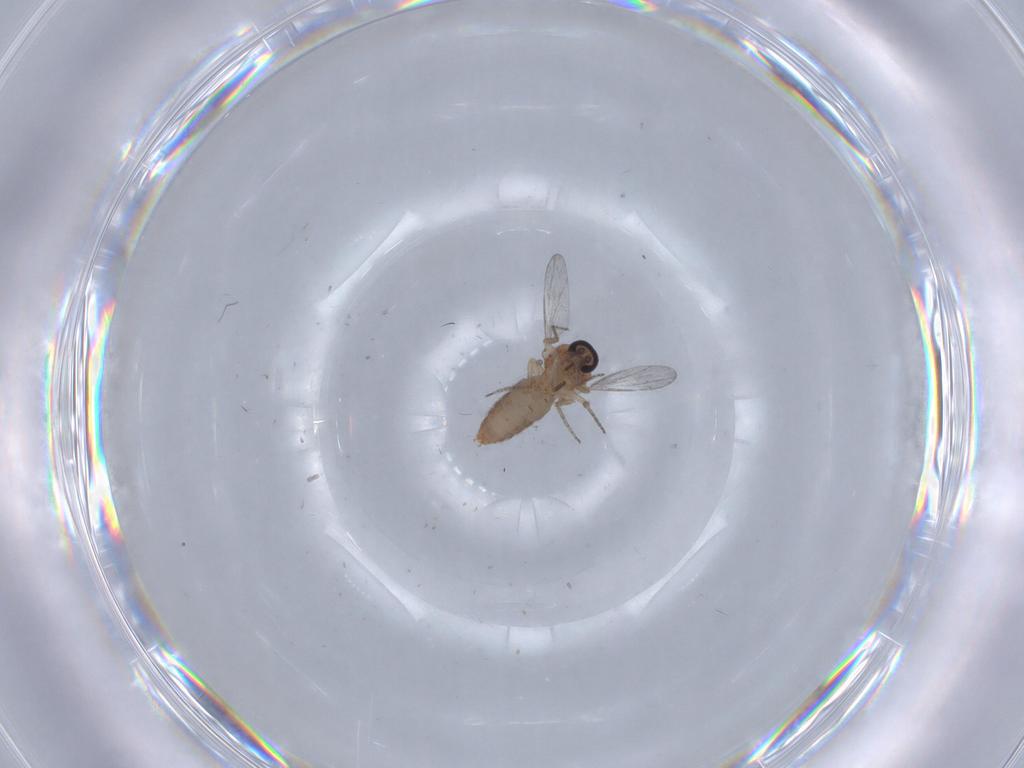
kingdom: Animalia
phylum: Arthropoda
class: Insecta
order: Diptera
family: Ceratopogonidae
